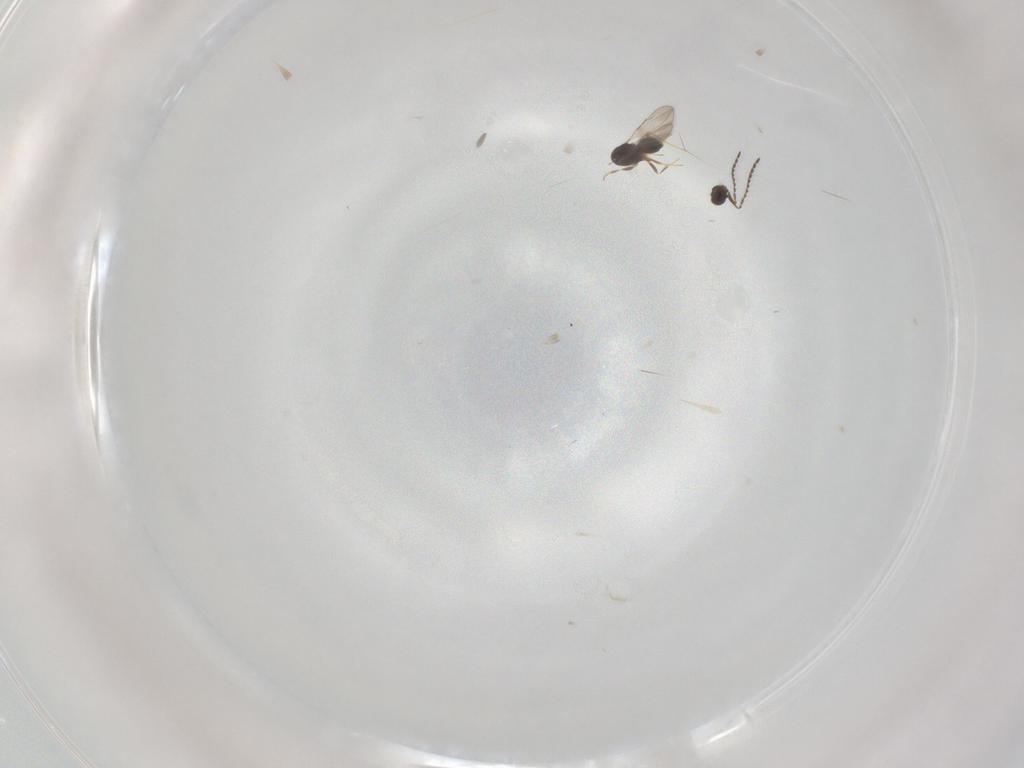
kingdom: Animalia
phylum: Arthropoda
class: Insecta
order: Hymenoptera
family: Ceraphronidae
